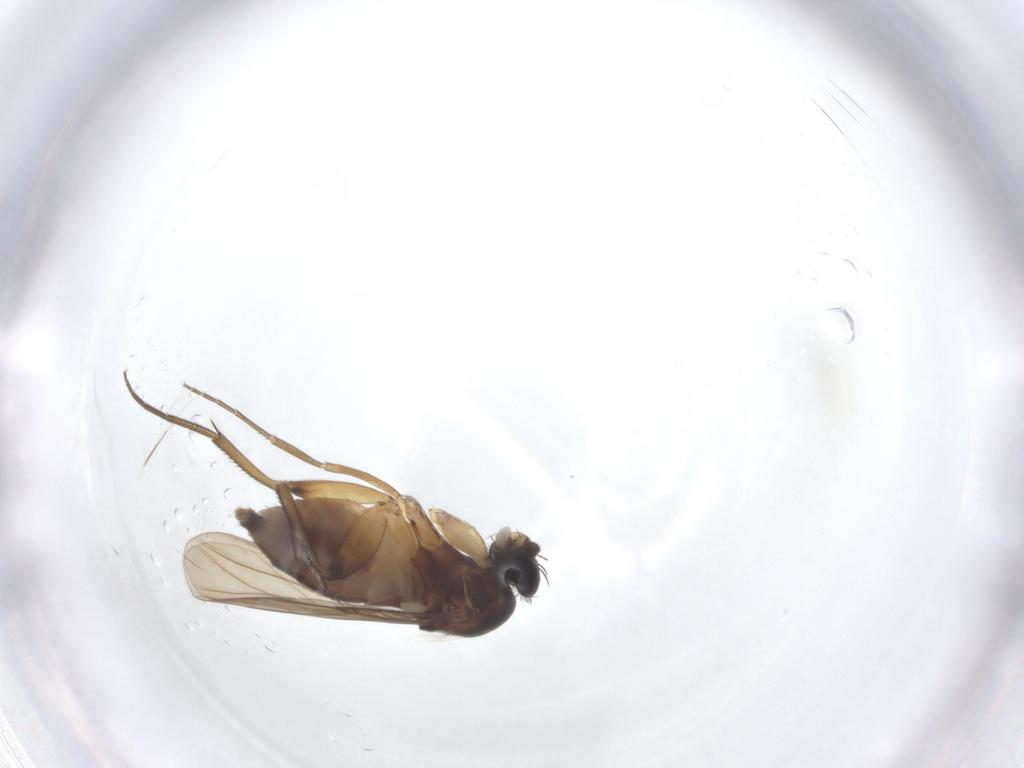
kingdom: Animalia
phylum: Arthropoda
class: Insecta
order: Diptera
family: Phoridae
